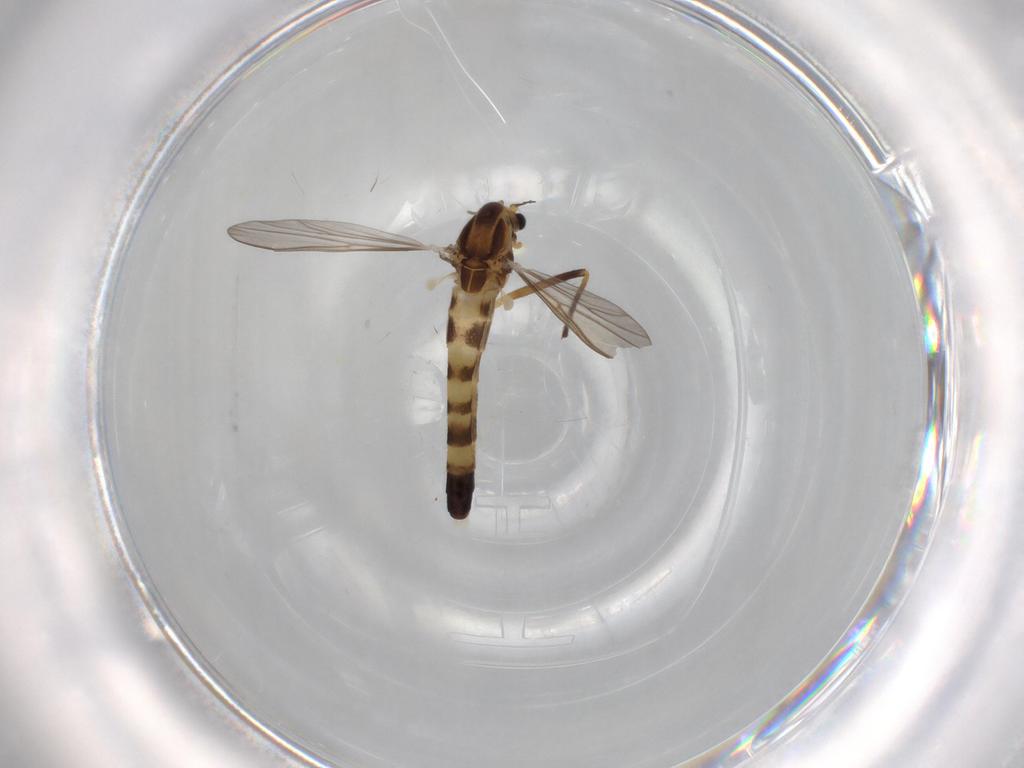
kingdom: Animalia
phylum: Arthropoda
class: Insecta
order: Diptera
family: Chironomidae
